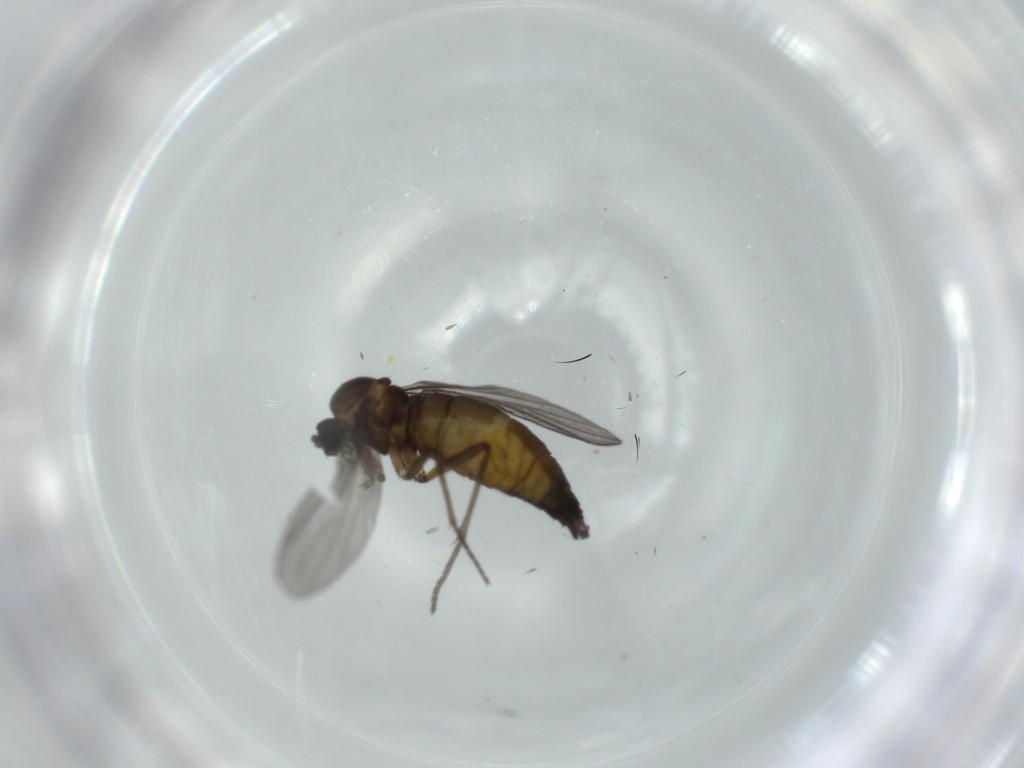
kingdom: Animalia
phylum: Arthropoda
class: Insecta
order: Diptera
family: Sciaridae
